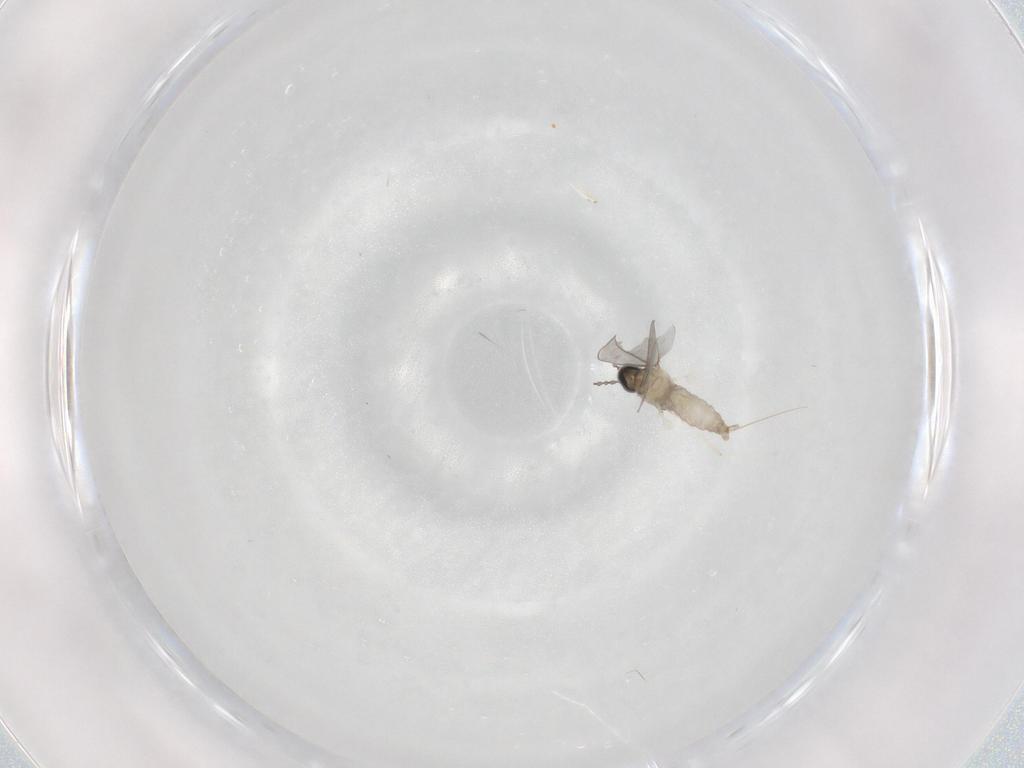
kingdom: Animalia
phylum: Arthropoda
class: Insecta
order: Diptera
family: Cecidomyiidae
